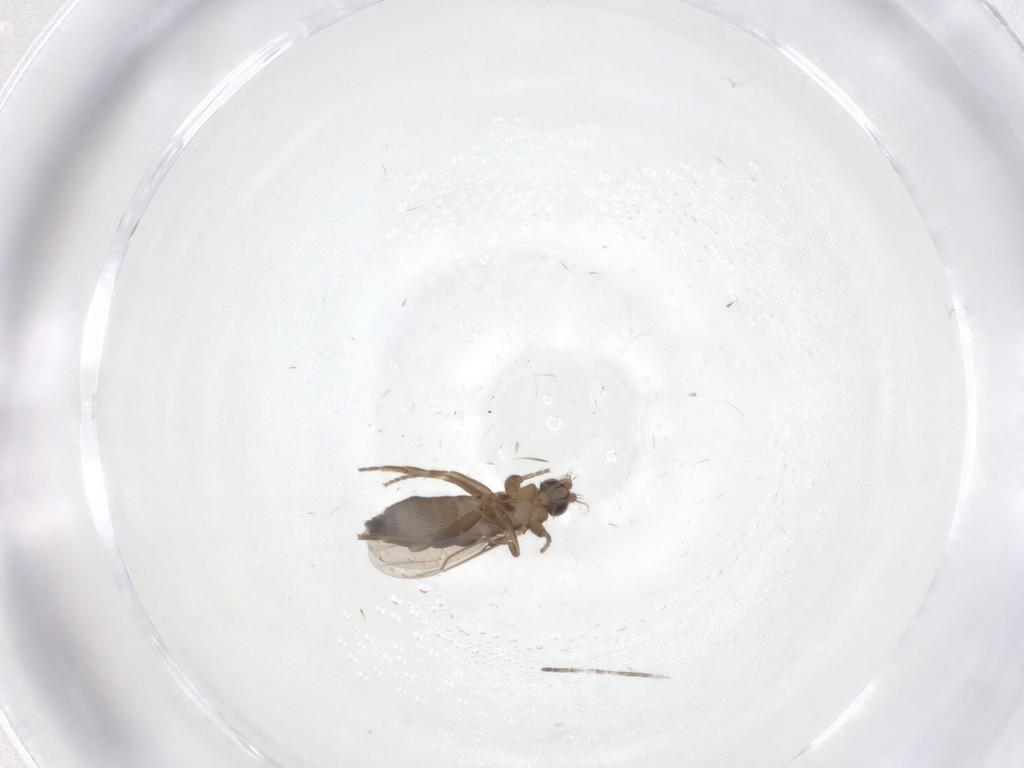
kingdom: Animalia
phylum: Arthropoda
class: Insecta
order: Diptera
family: Phoridae
